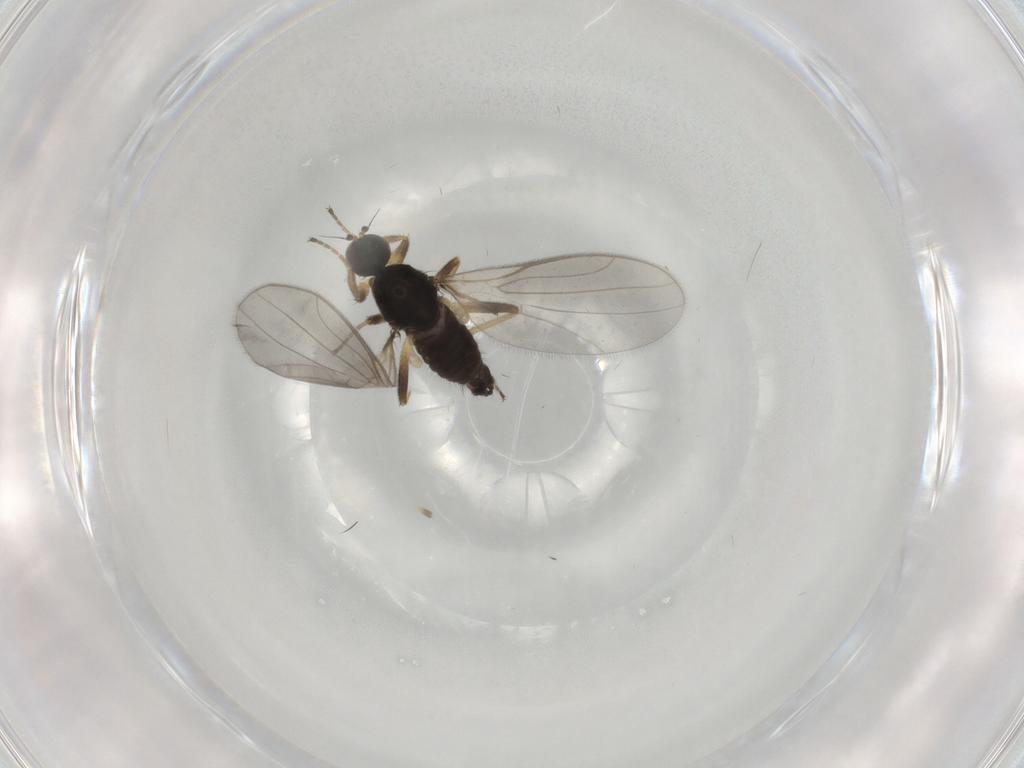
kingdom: Animalia
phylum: Arthropoda
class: Insecta
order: Diptera
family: Hybotidae
